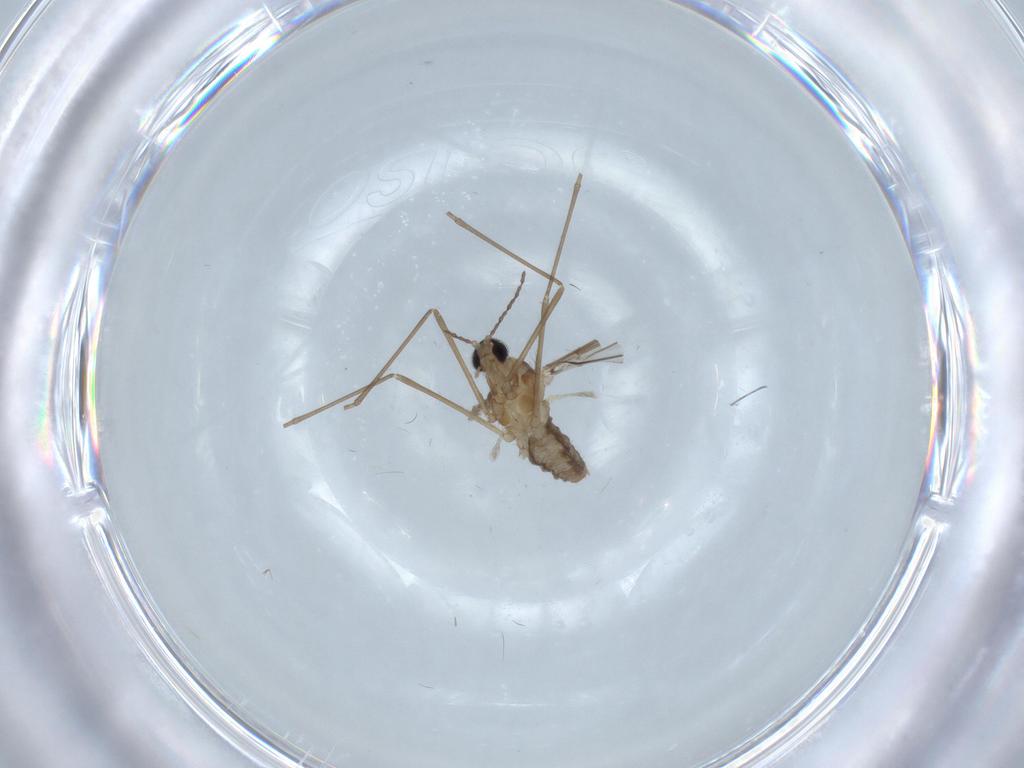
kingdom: Animalia
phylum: Arthropoda
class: Insecta
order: Diptera
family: Cecidomyiidae
